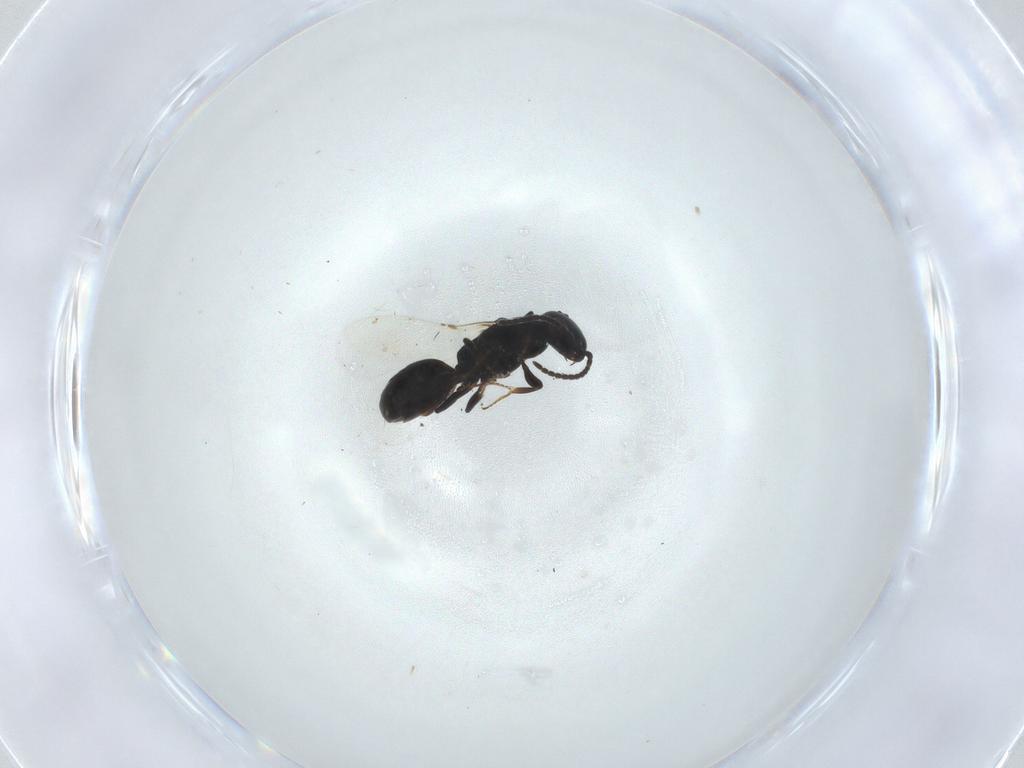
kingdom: Animalia
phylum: Arthropoda
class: Insecta
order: Hymenoptera
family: Bethylidae
